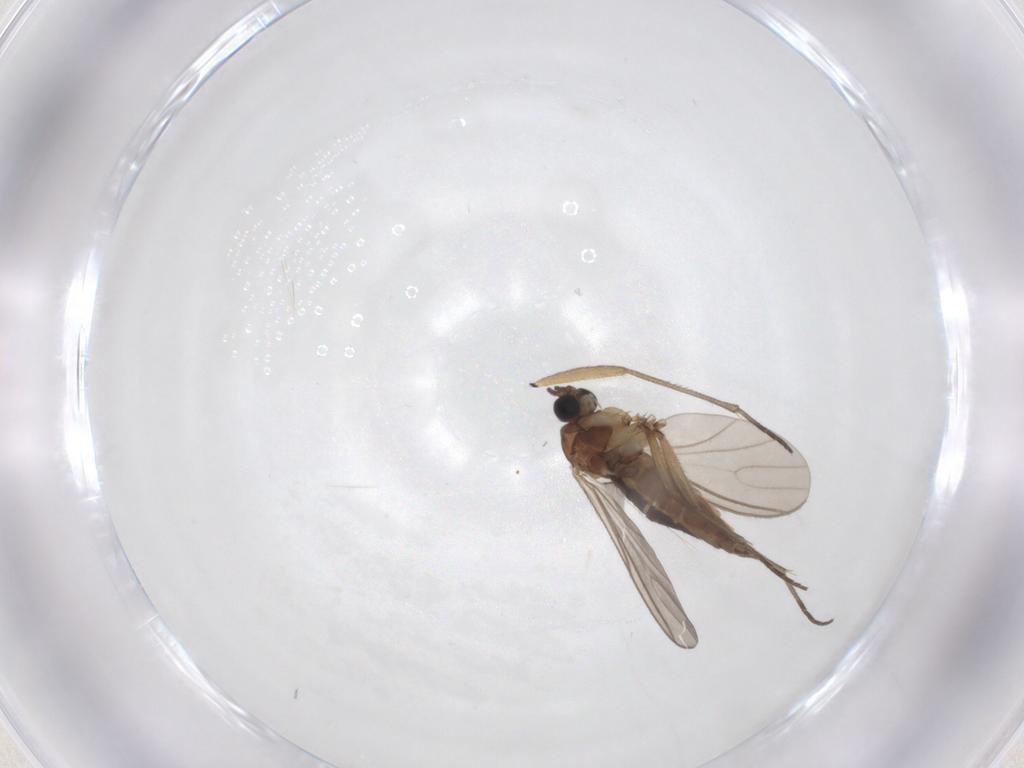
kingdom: Animalia
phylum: Arthropoda
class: Insecta
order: Diptera
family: Sciaridae
